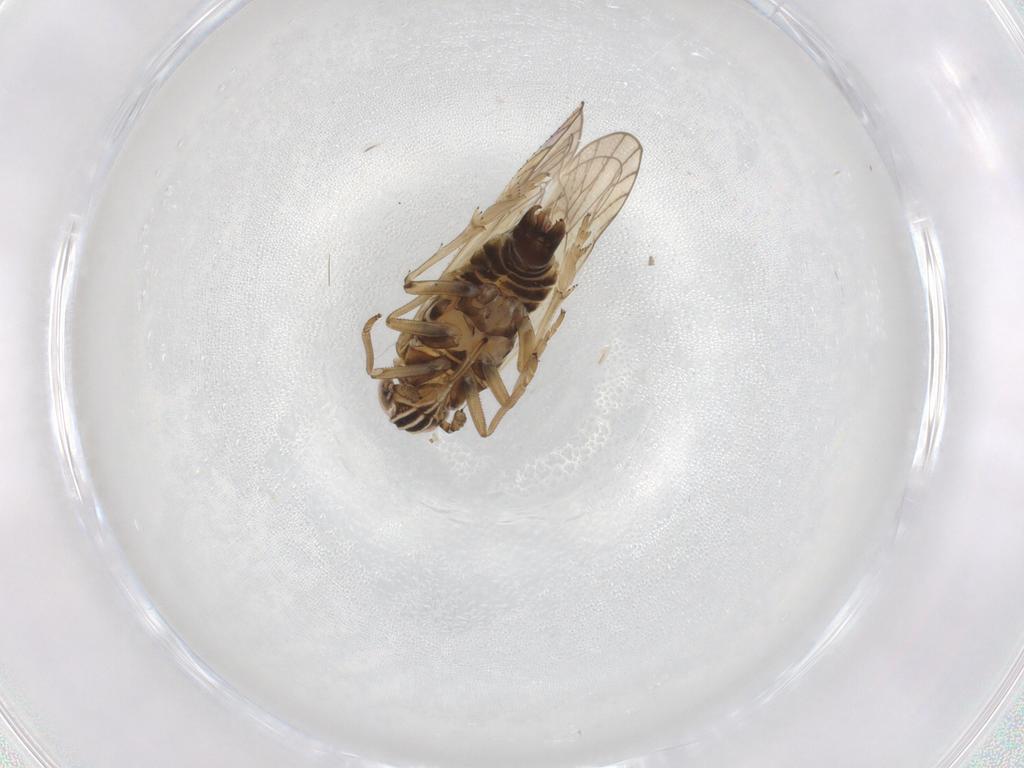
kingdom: Animalia
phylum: Arthropoda
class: Insecta
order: Hemiptera
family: Delphacidae
